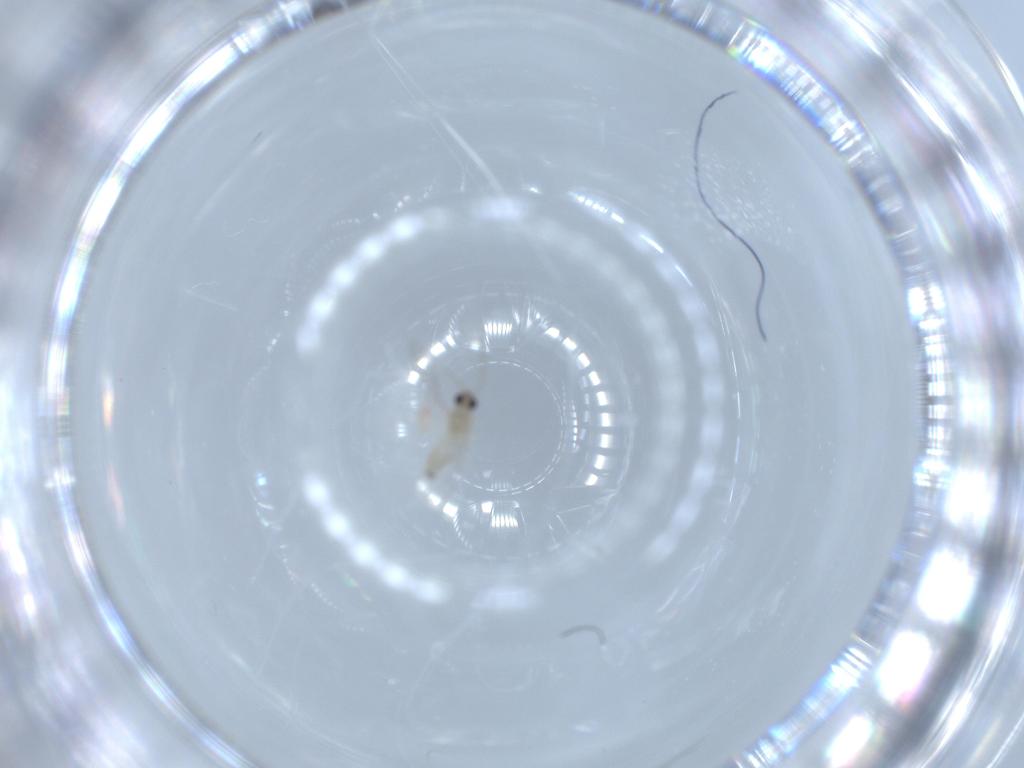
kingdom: Animalia
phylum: Arthropoda
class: Insecta
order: Diptera
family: Cecidomyiidae
